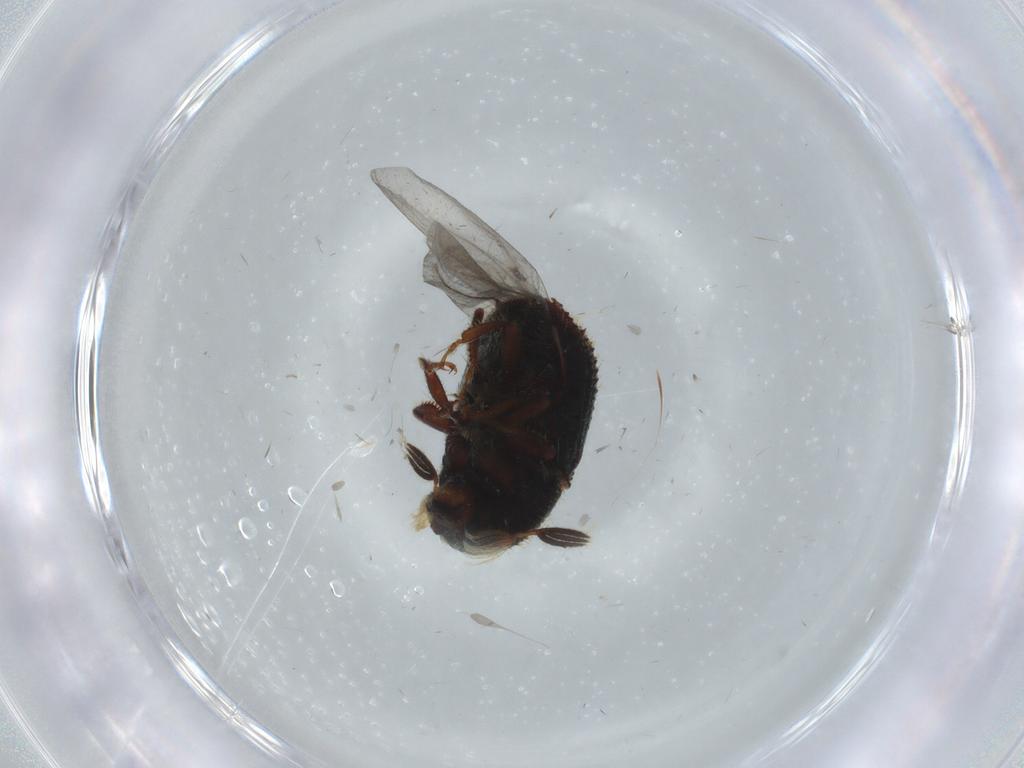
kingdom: Animalia
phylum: Arthropoda
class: Insecta
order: Coleoptera
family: Curculionidae
